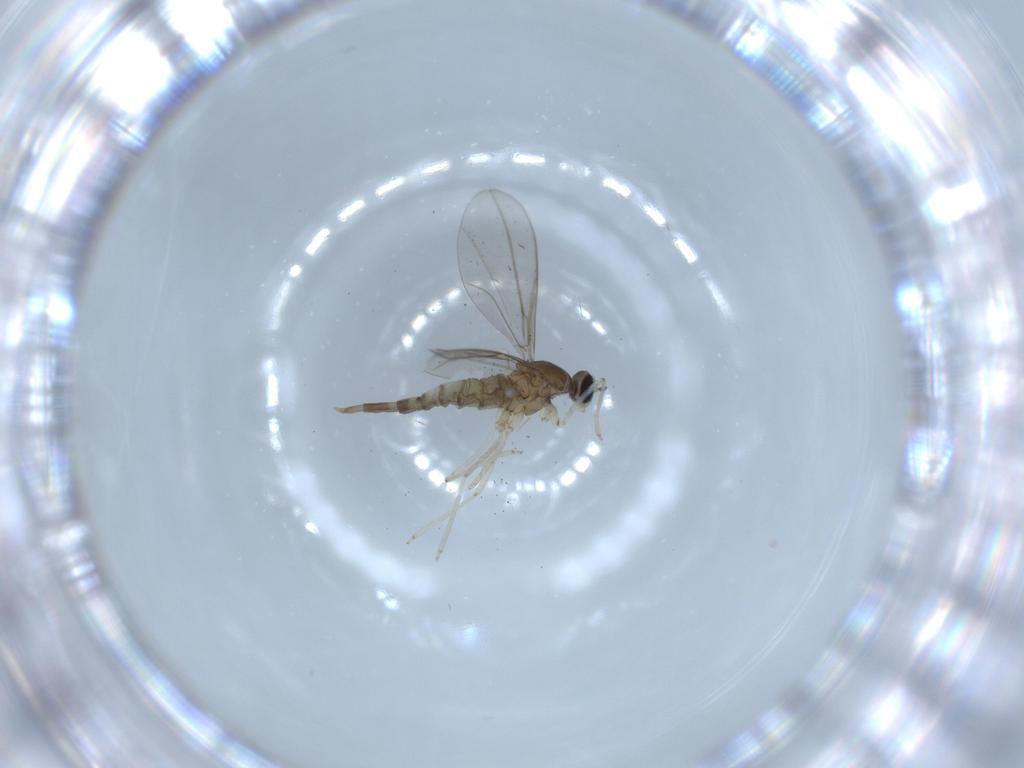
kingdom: Animalia
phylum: Arthropoda
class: Insecta
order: Diptera
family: Cecidomyiidae
